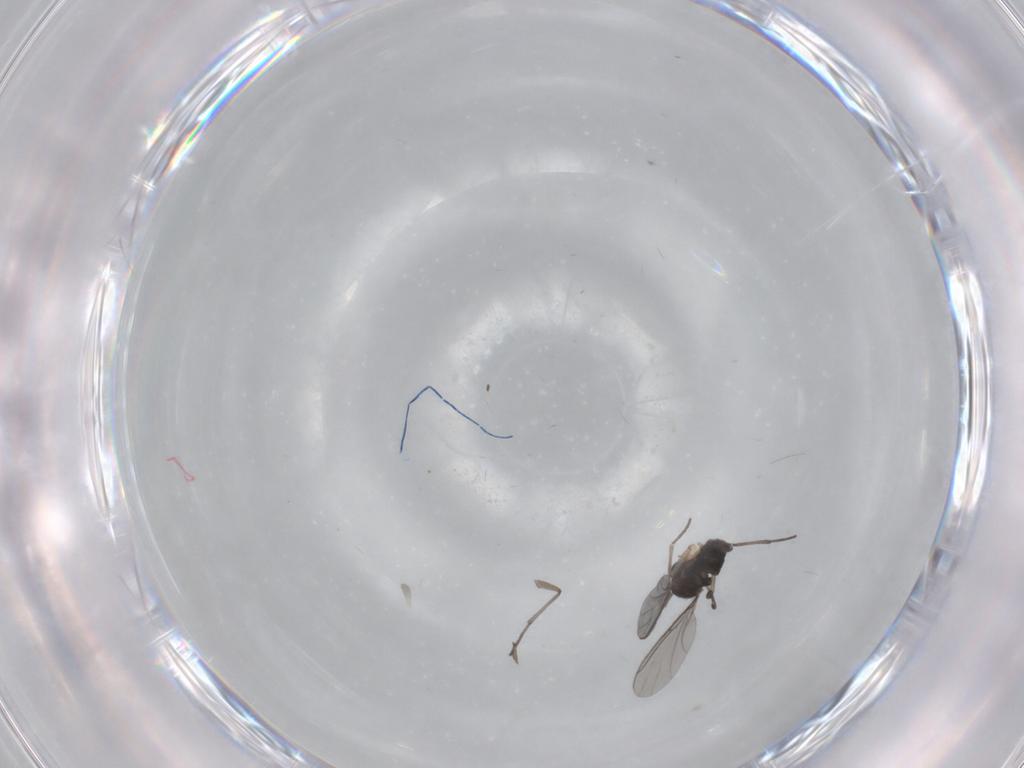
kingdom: Animalia
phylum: Arthropoda
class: Insecta
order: Diptera
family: Sciaridae
